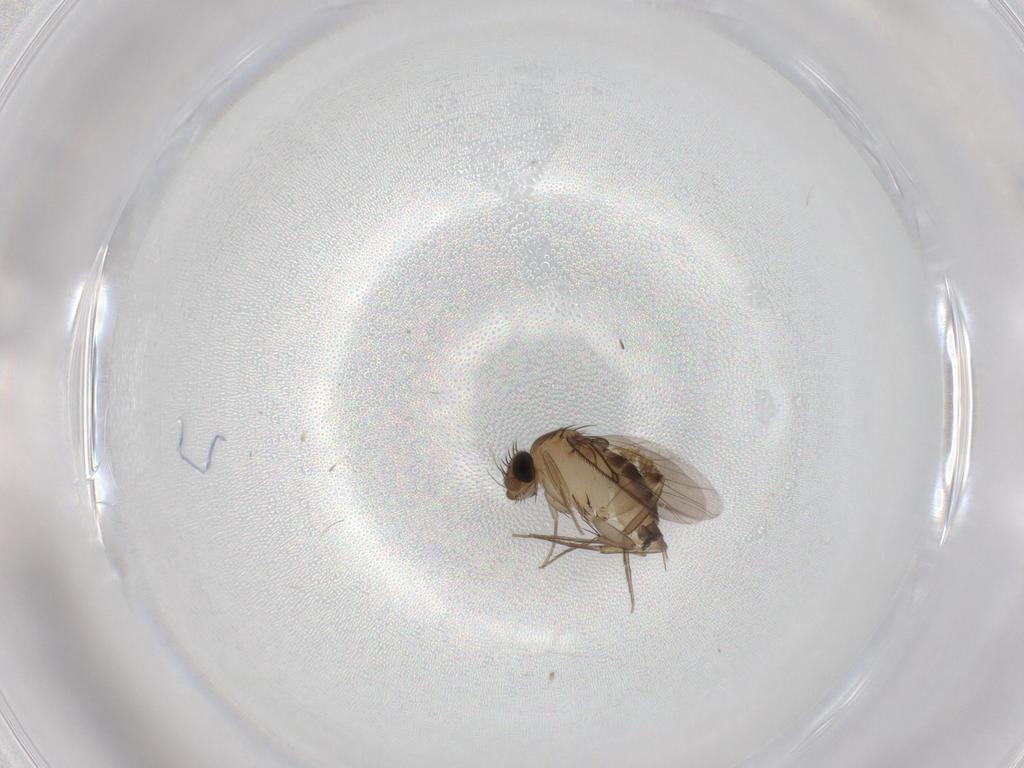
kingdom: Animalia
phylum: Arthropoda
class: Insecta
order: Diptera
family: Phoridae
